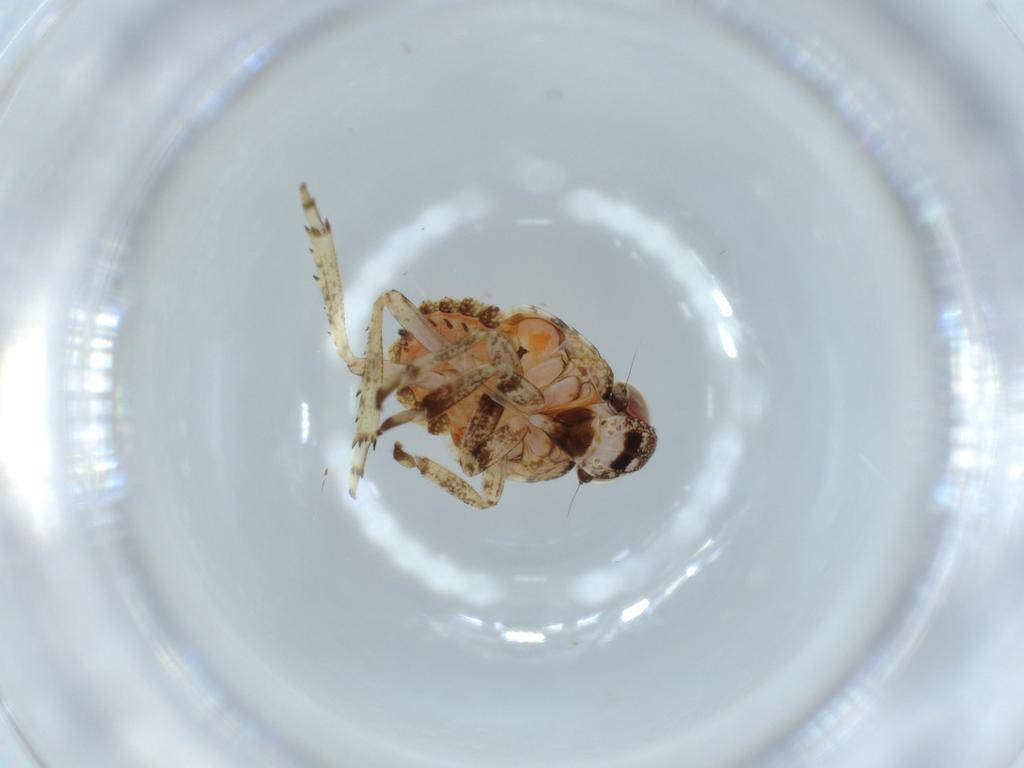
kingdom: Animalia
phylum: Arthropoda
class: Insecta
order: Hemiptera
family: Issidae
